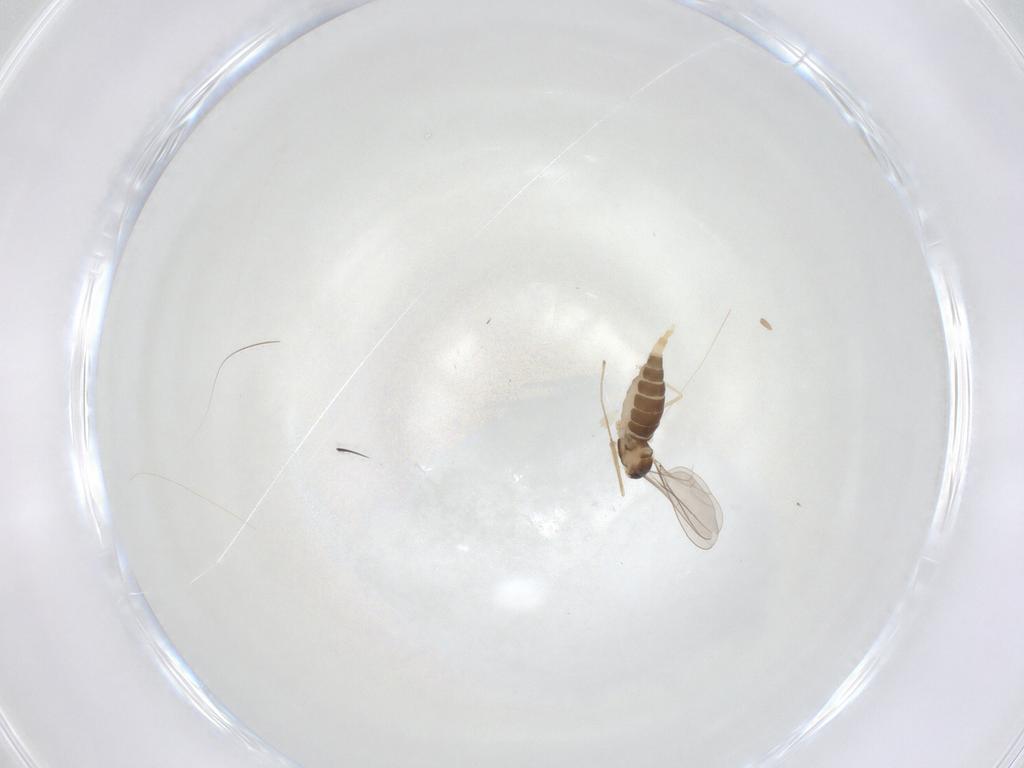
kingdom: Animalia
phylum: Arthropoda
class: Insecta
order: Diptera
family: Cecidomyiidae
